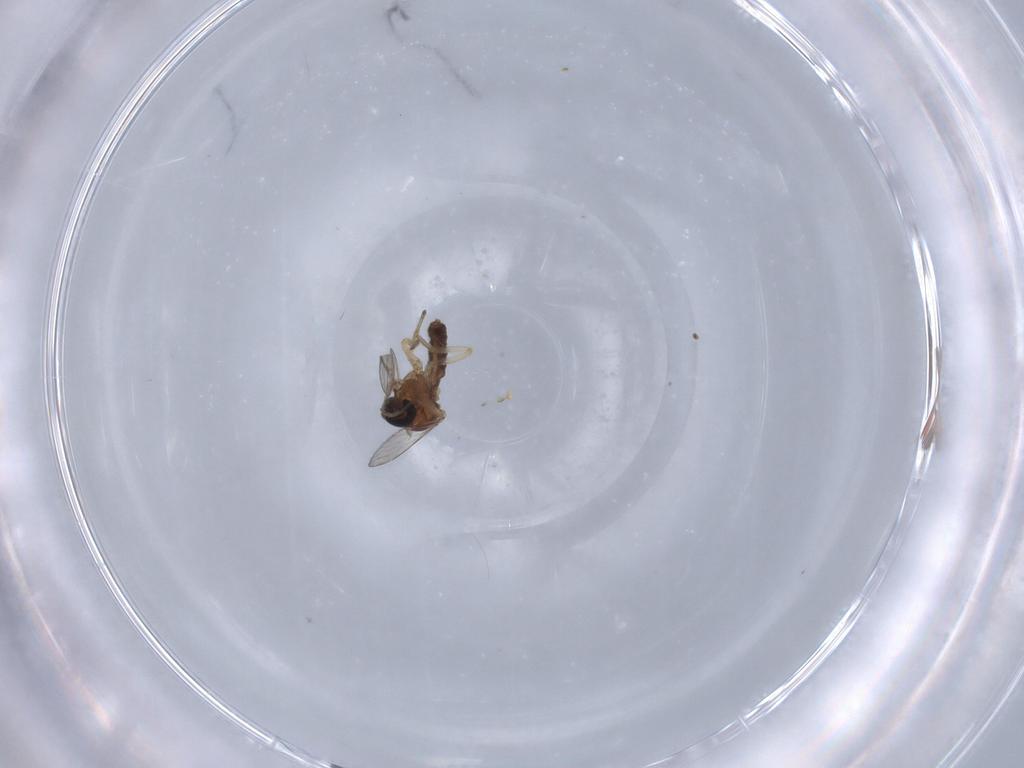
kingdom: Animalia
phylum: Arthropoda
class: Insecta
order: Diptera
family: Ceratopogonidae
